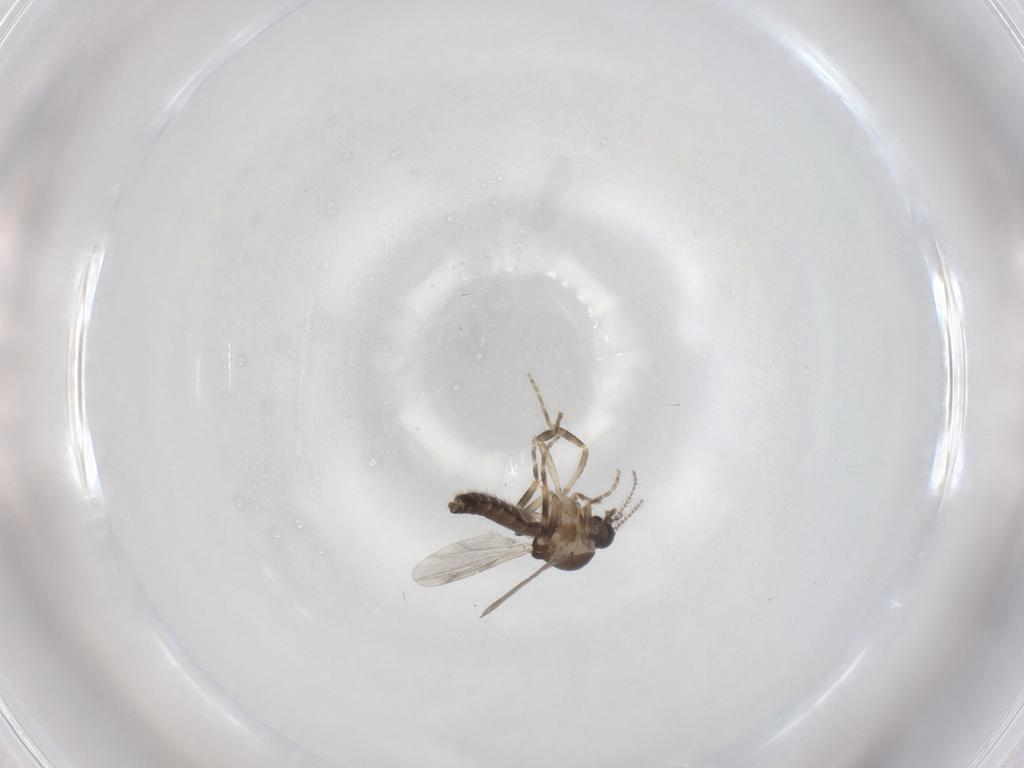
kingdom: Animalia
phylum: Arthropoda
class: Insecta
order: Diptera
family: Ceratopogonidae
